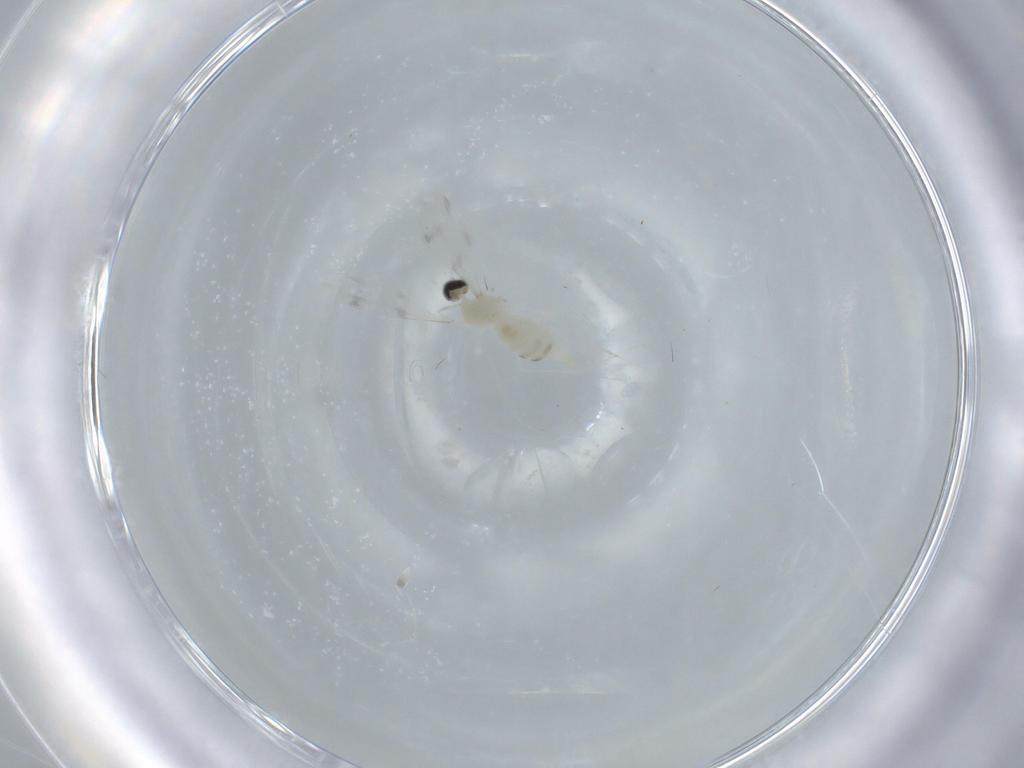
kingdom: Animalia
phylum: Arthropoda
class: Insecta
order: Diptera
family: Cecidomyiidae
